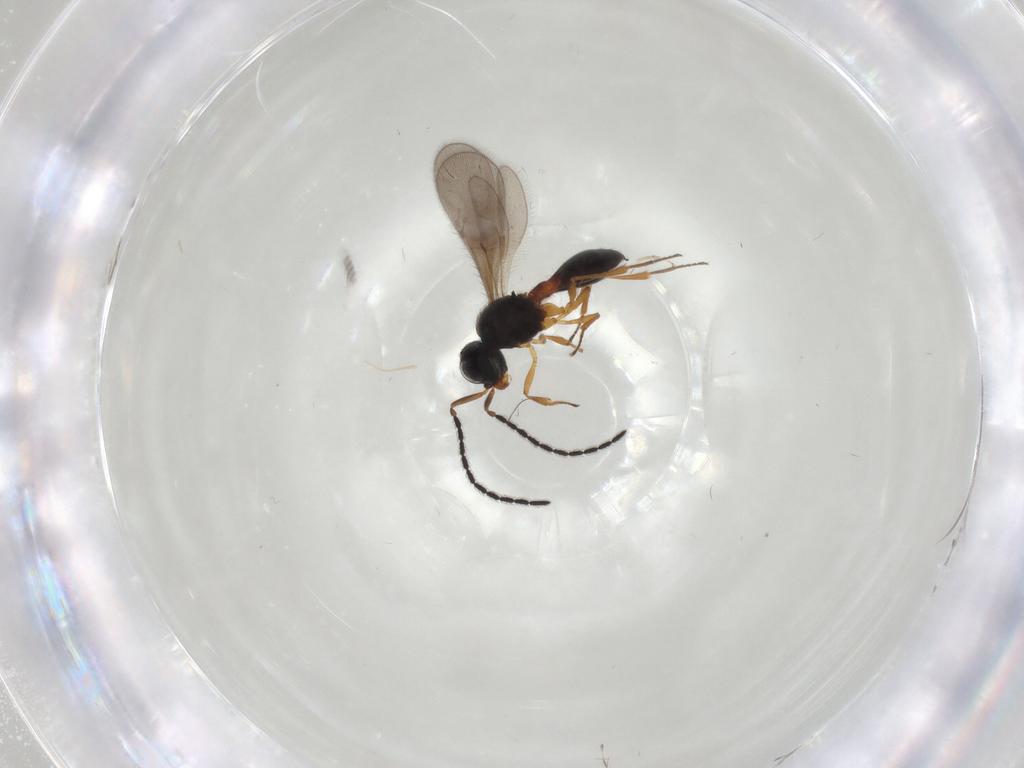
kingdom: Animalia
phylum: Arthropoda
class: Insecta
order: Hymenoptera
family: Scelionidae
